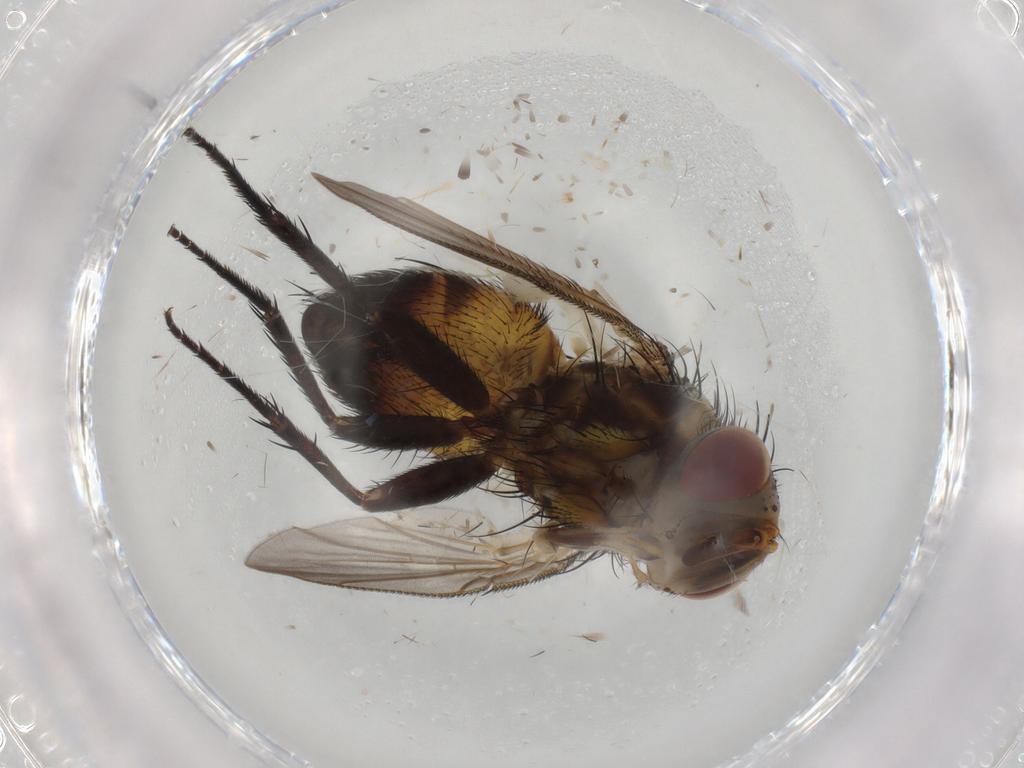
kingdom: Animalia
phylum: Arthropoda
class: Insecta
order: Diptera
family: Tachinidae
